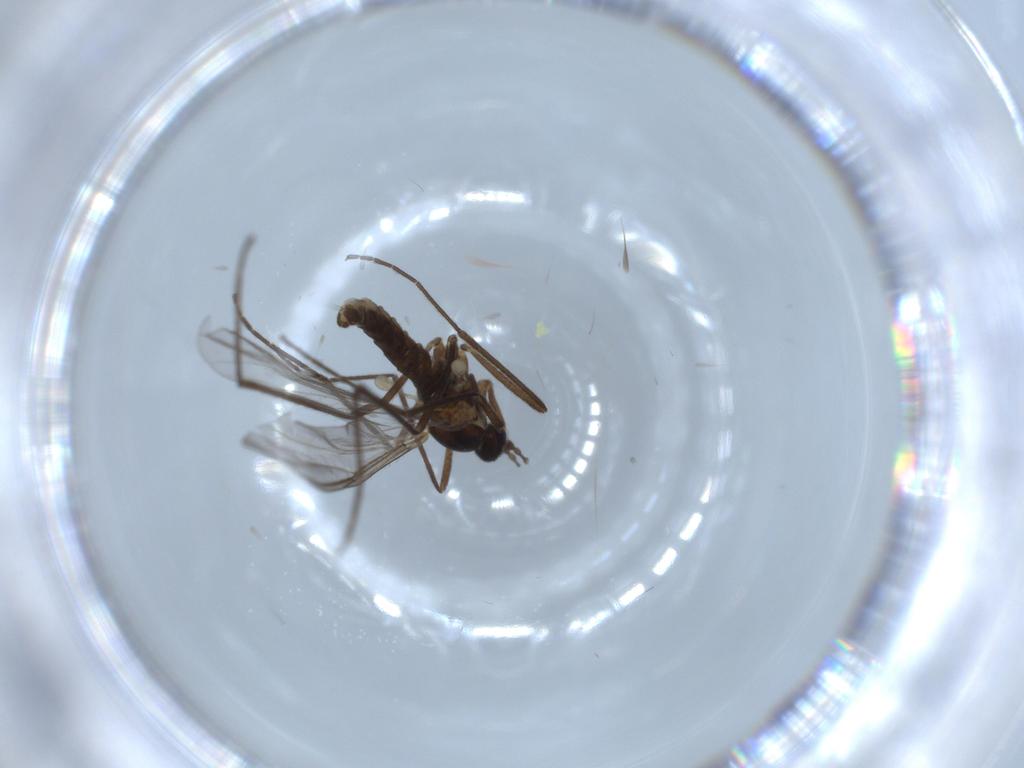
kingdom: Animalia
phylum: Arthropoda
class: Insecta
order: Diptera
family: Cecidomyiidae
